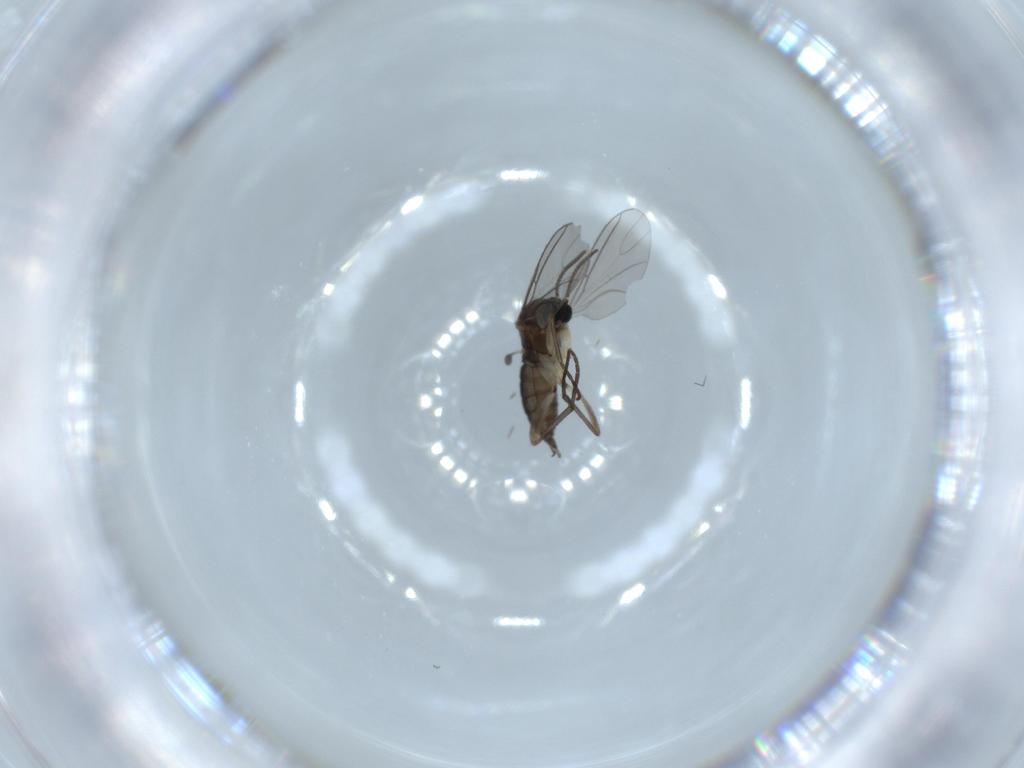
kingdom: Animalia
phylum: Arthropoda
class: Insecta
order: Diptera
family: Sciaridae
